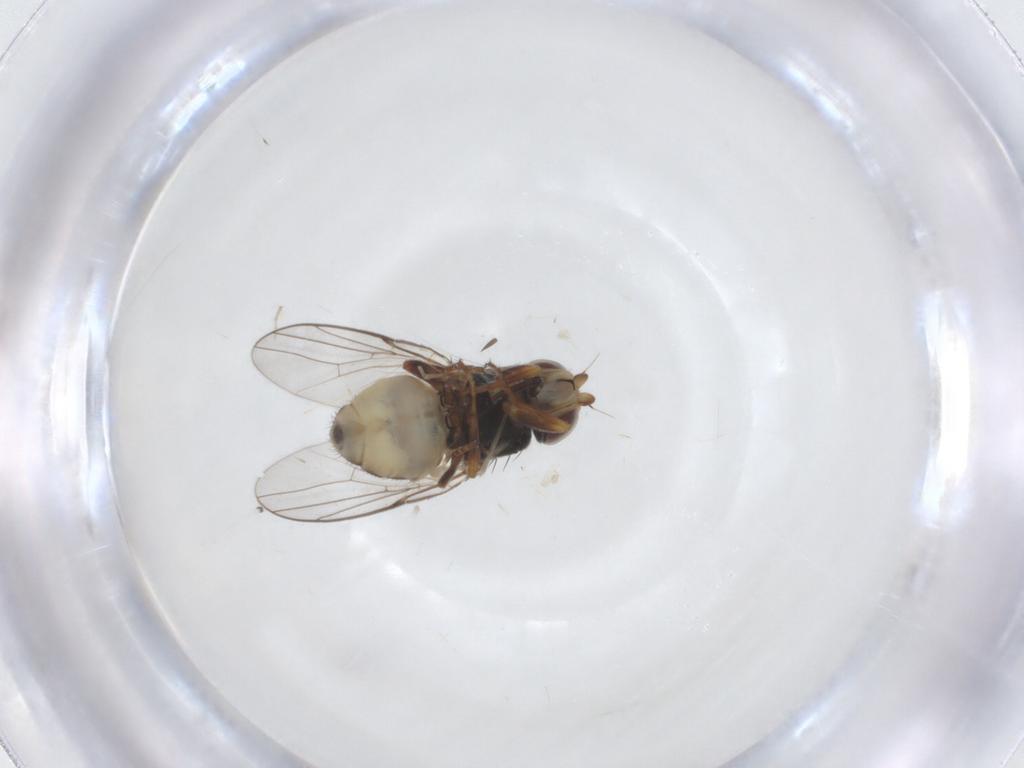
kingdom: Animalia
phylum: Arthropoda
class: Insecta
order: Diptera
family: Chloropidae
